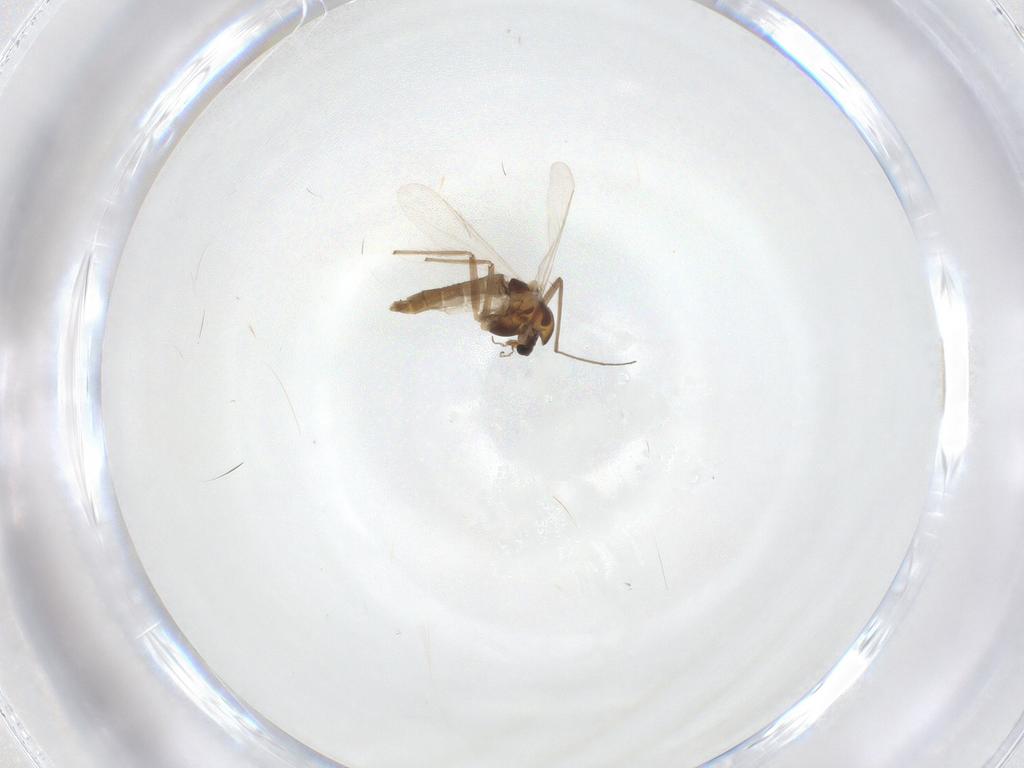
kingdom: Animalia
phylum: Arthropoda
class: Insecta
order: Diptera
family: Chironomidae
